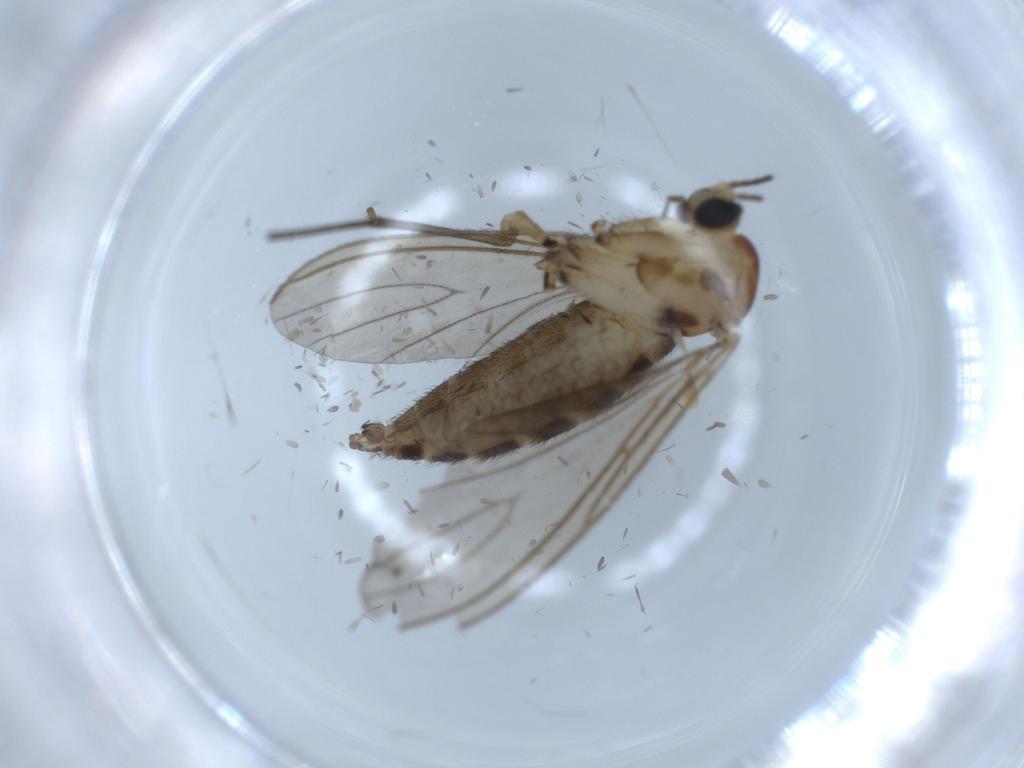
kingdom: Animalia
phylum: Arthropoda
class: Insecta
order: Diptera
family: Sciaridae
